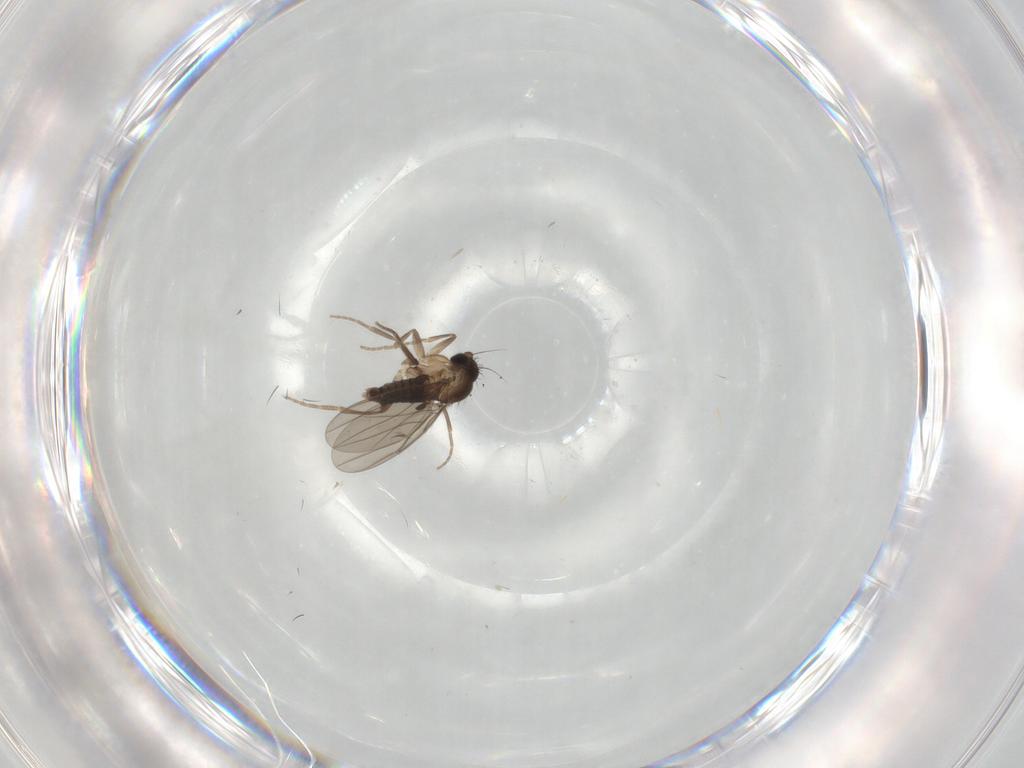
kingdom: Animalia
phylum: Arthropoda
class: Insecta
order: Diptera
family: Phoridae
